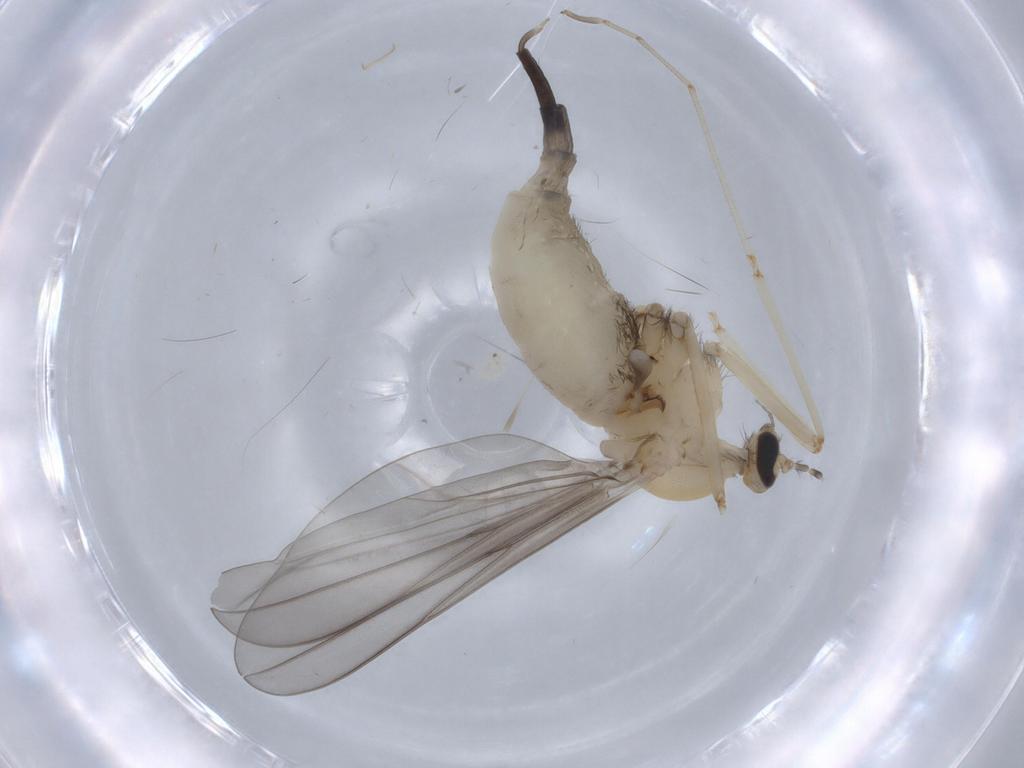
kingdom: Animalia
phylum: Arthropoda
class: Insecta
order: Diptera
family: Cecidomyiidae
